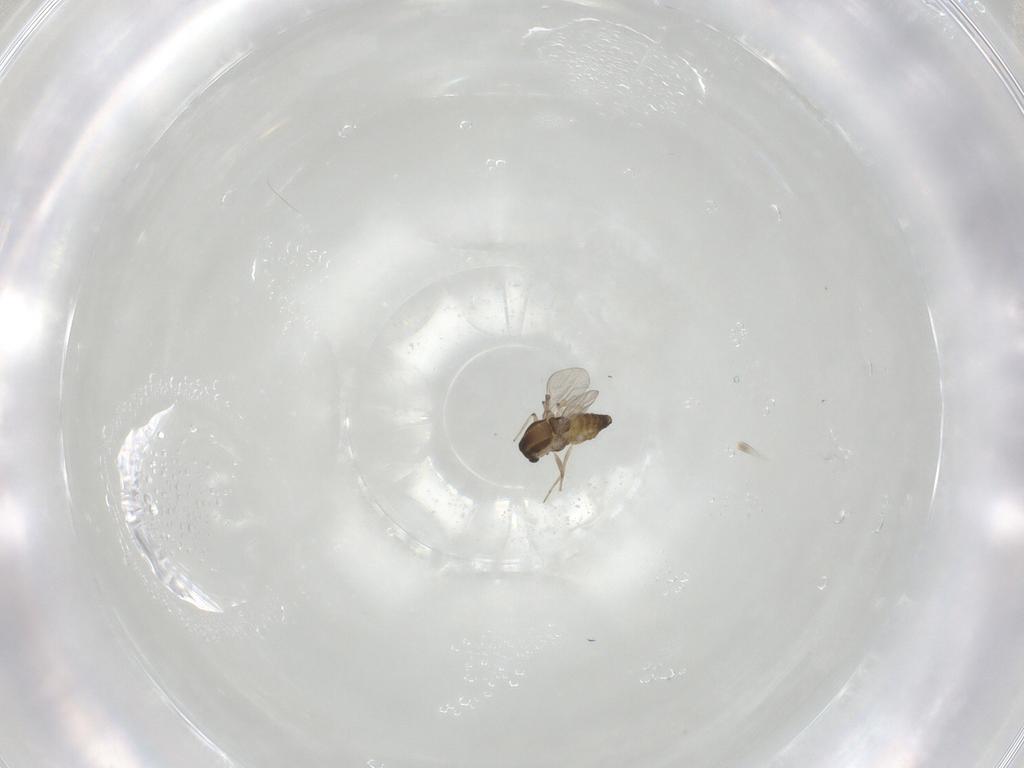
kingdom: Animalia
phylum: Arthropoda
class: Insecta
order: Diptera
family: Chironomidae
